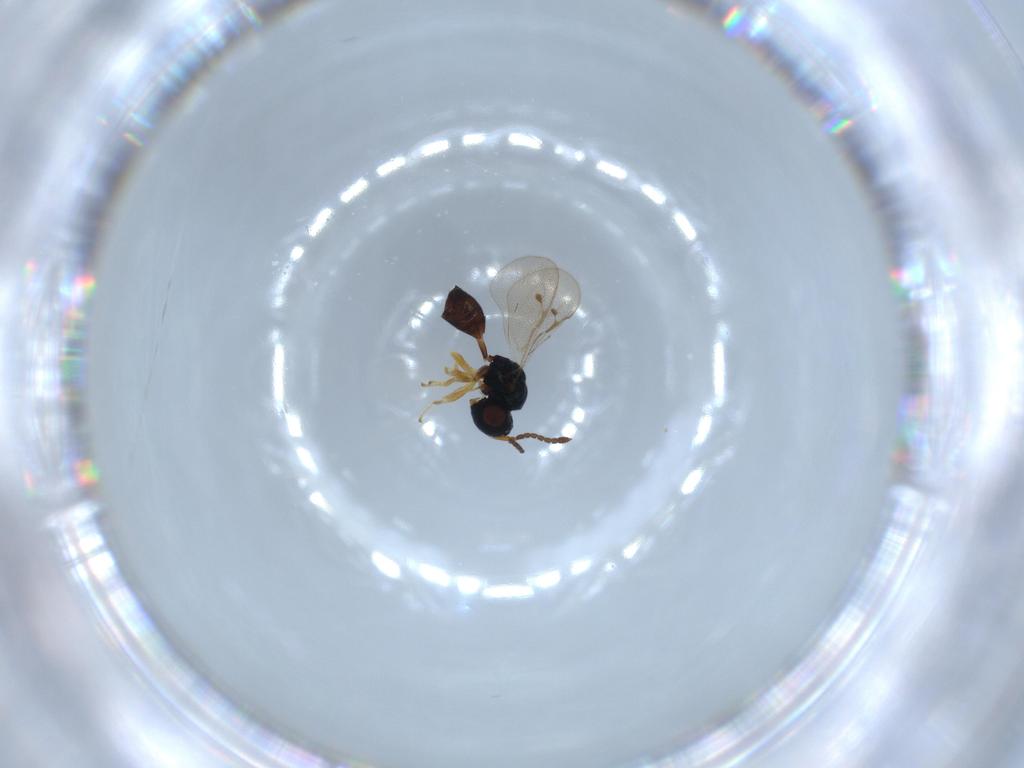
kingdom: Animalia
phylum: Arthropoda
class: Insecta
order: Hymenoptera
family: Pteromalidae
